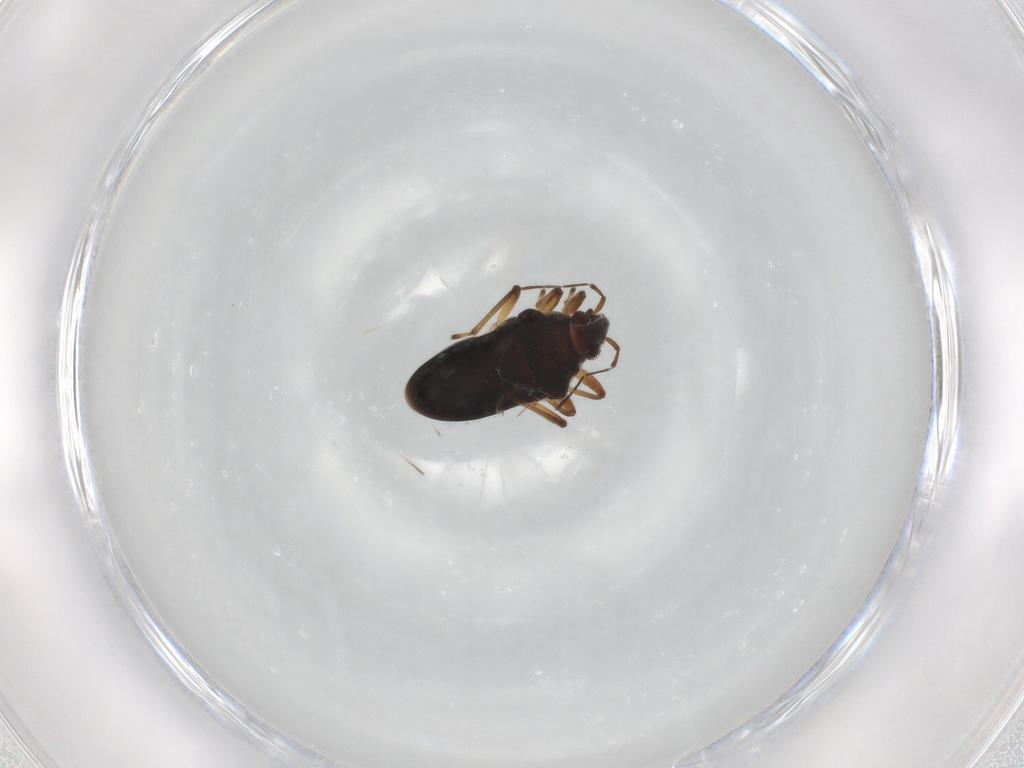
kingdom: Animalia
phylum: Arthropoda
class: Insecta
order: Hemiptera
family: Hebridae
